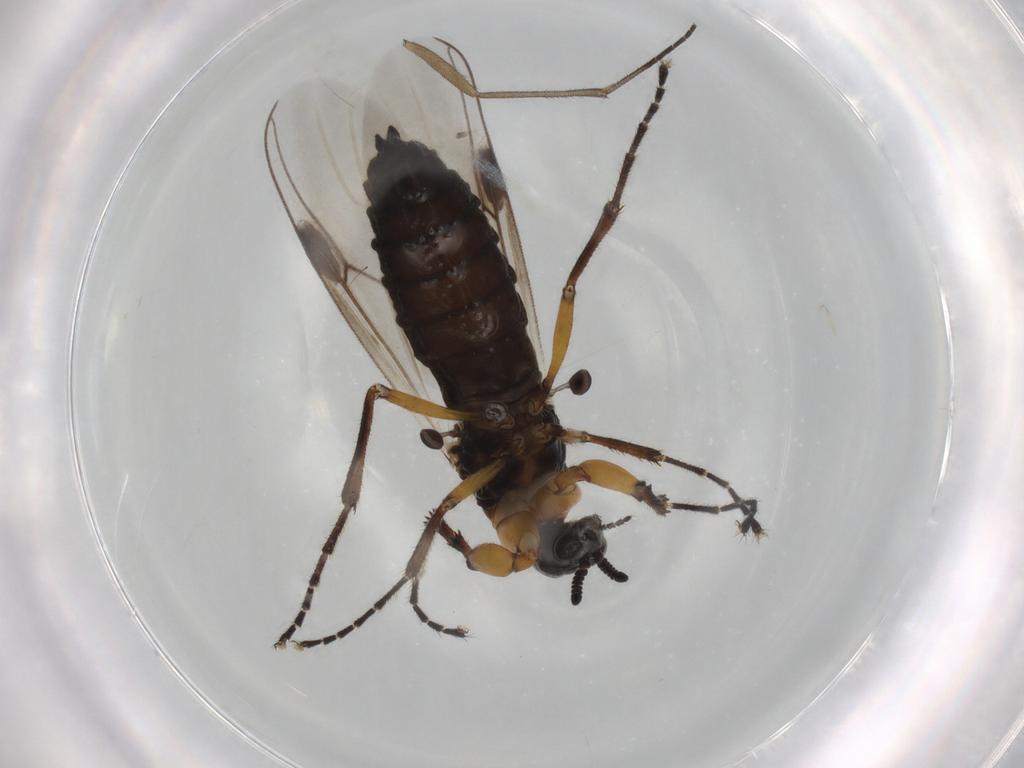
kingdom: Animalia
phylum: Arthropoda
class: Insecta
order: Diptera
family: Bibionidae
